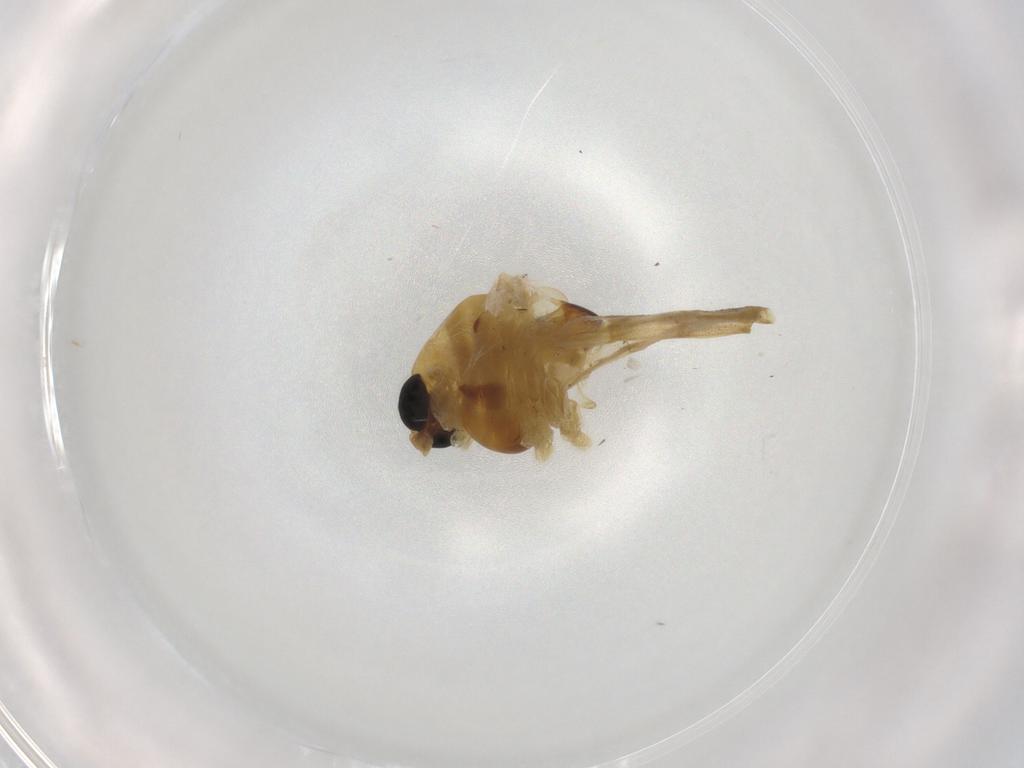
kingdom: Animalia
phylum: Arthropoda
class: Insecta
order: Diptera
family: Chironomidae
